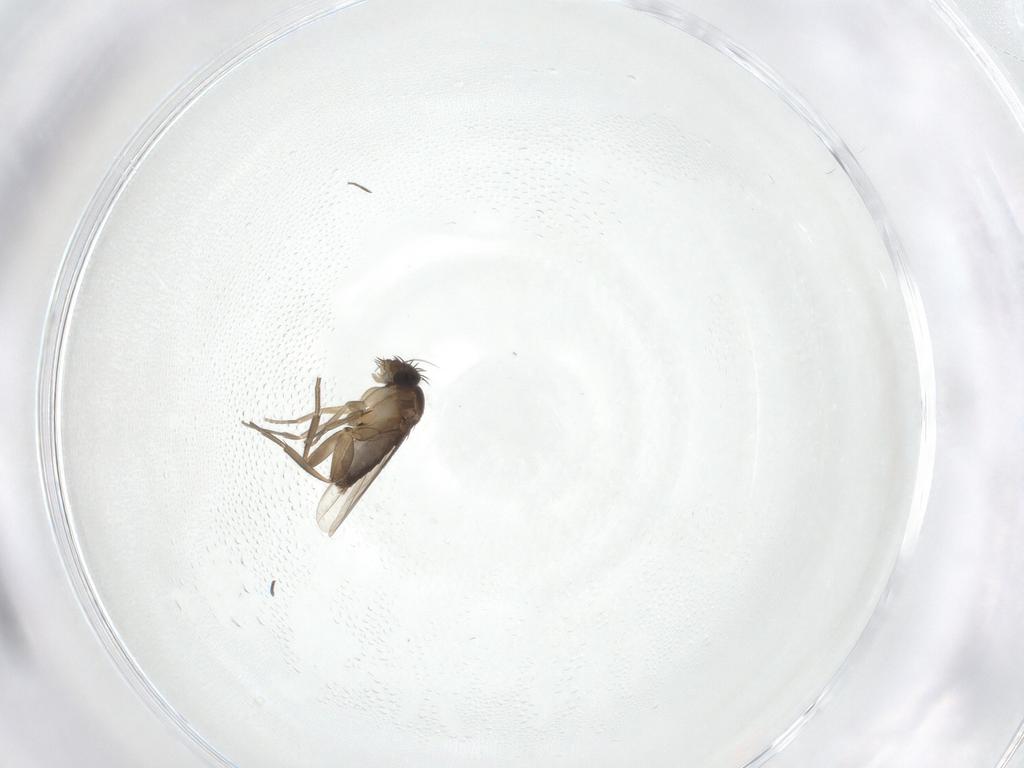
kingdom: Animalia
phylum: Arthropoda
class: Insecta
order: Diptera
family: Phoridae
